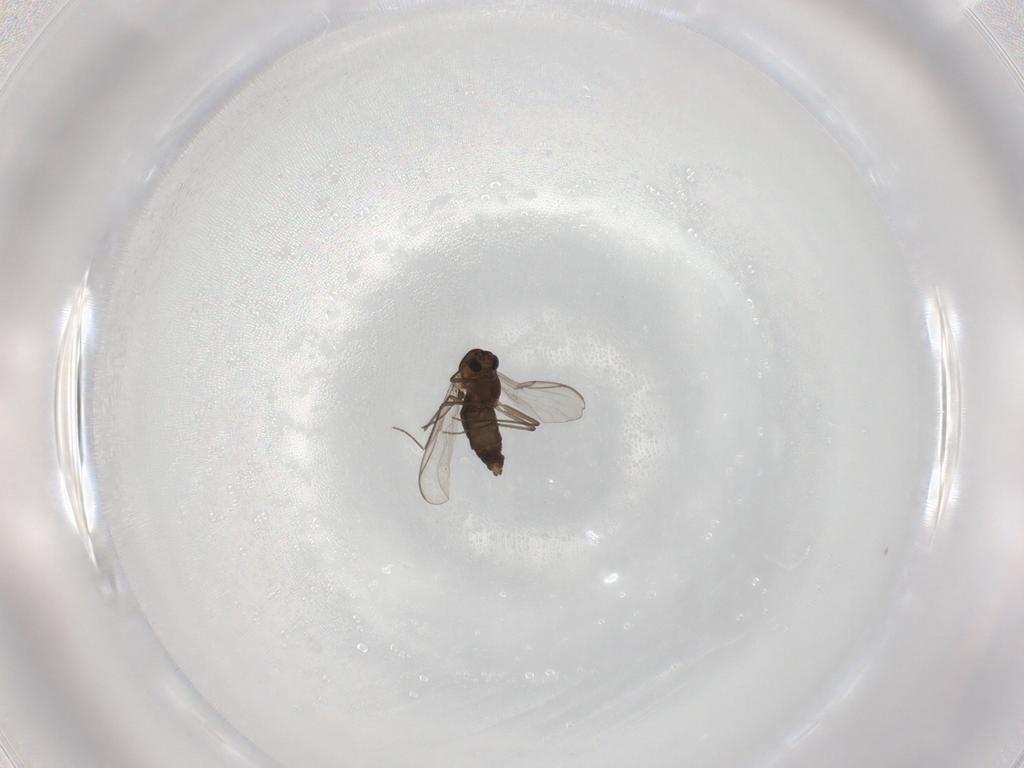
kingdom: Animalia
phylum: Arthropoda
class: Insecta
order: Diptera
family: Chironomidae
